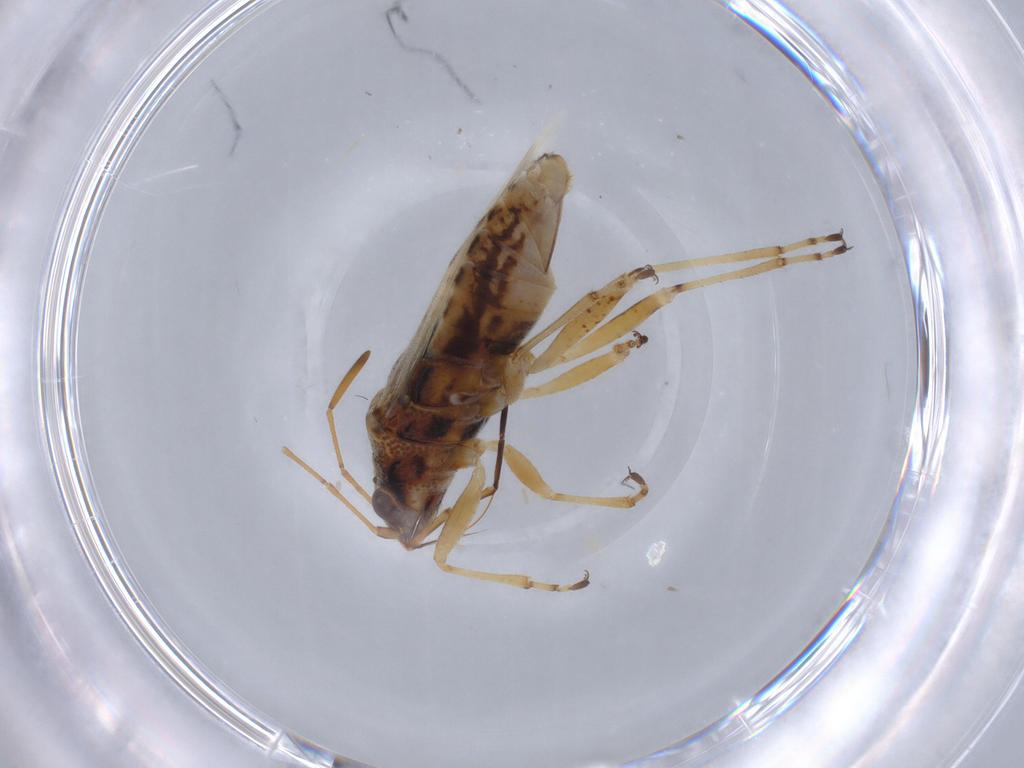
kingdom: Animalia
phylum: Arthropoda
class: Insecta
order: Hemiptera
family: Lygaeidae
